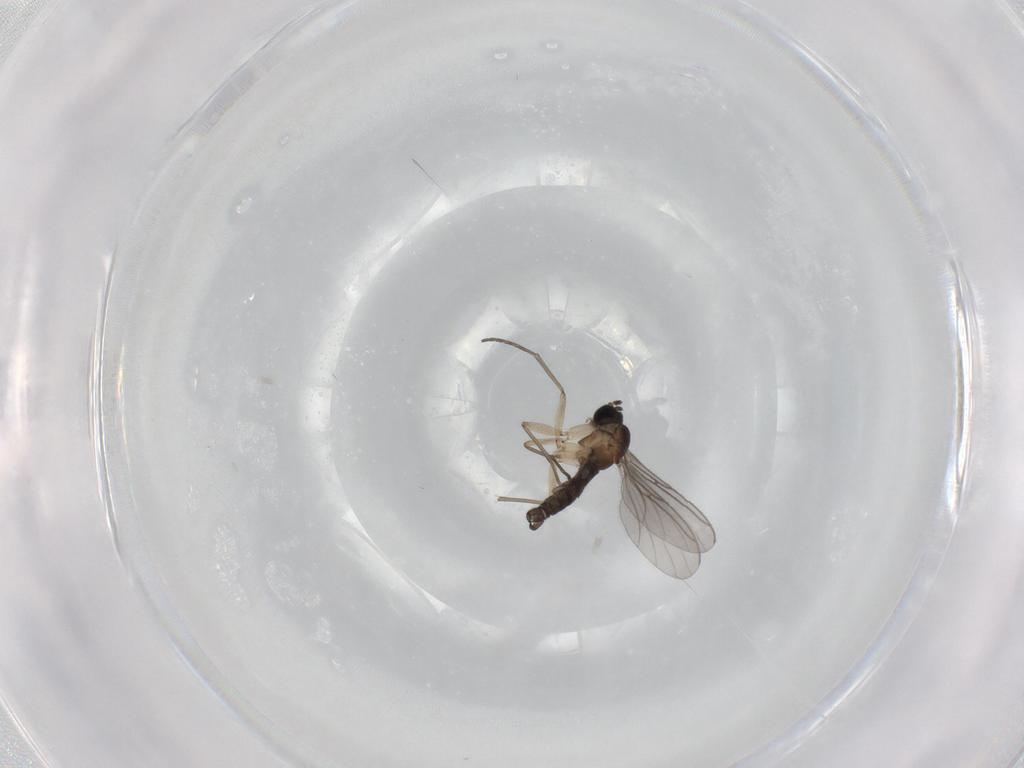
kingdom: Animalia
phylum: Arthropoda
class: Insecta
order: Diptera
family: Sciaridae
